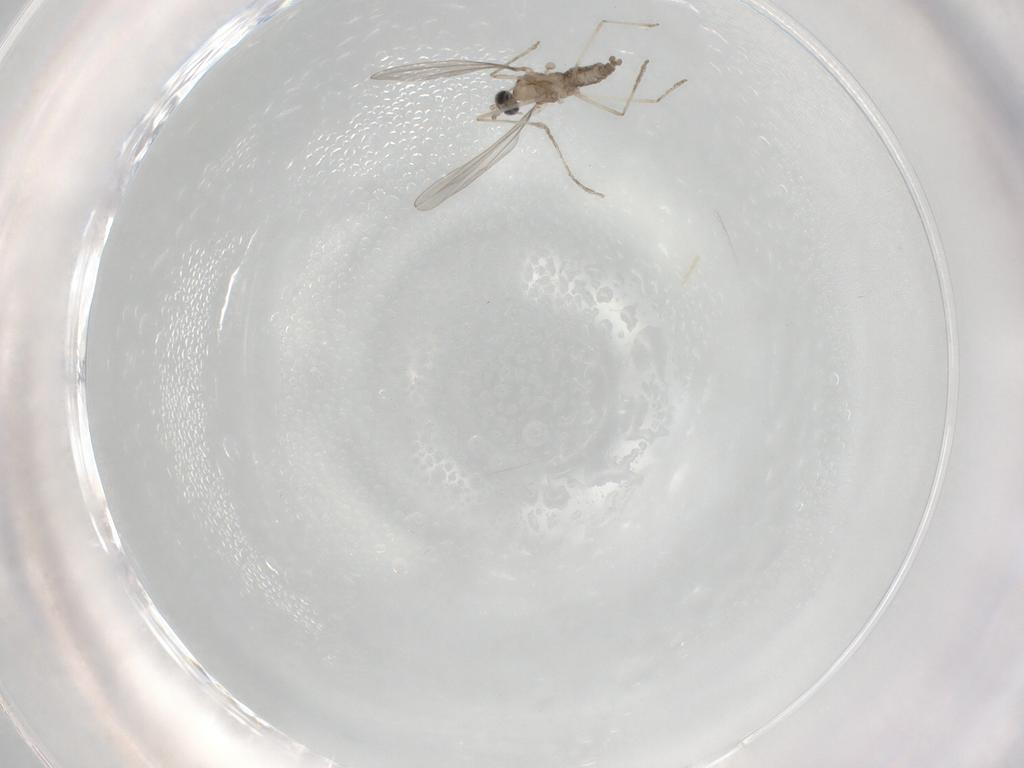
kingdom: Animalia
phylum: Arthropoda
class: Insecta
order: Diptera
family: Cecidomyiidae
